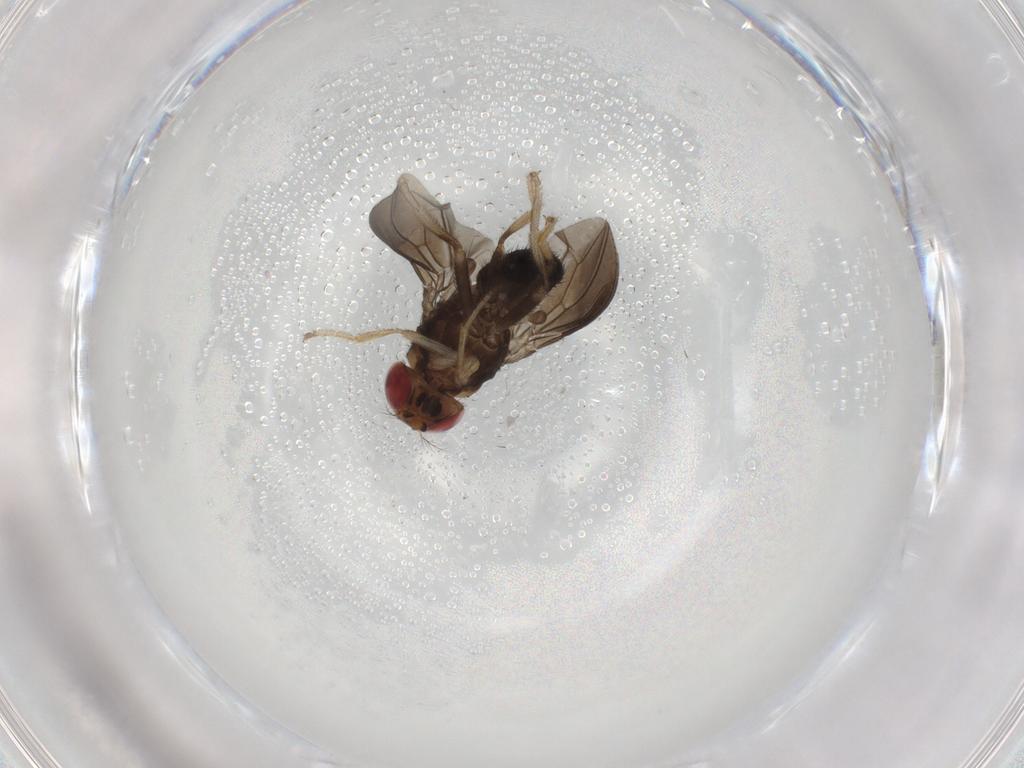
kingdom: Animalia
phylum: Arthropoda
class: Insecta
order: Diptera
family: Drosophilidae
